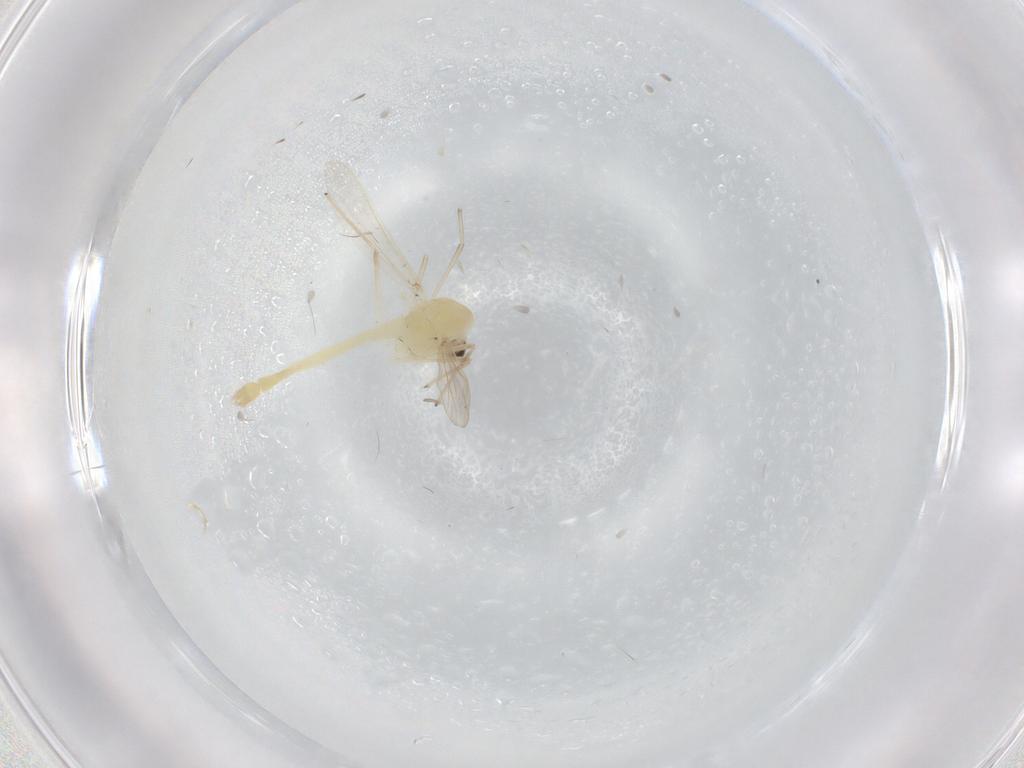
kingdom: Animalia
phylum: Arthropoda
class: Insecta
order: Diptera
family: Chironomidae
